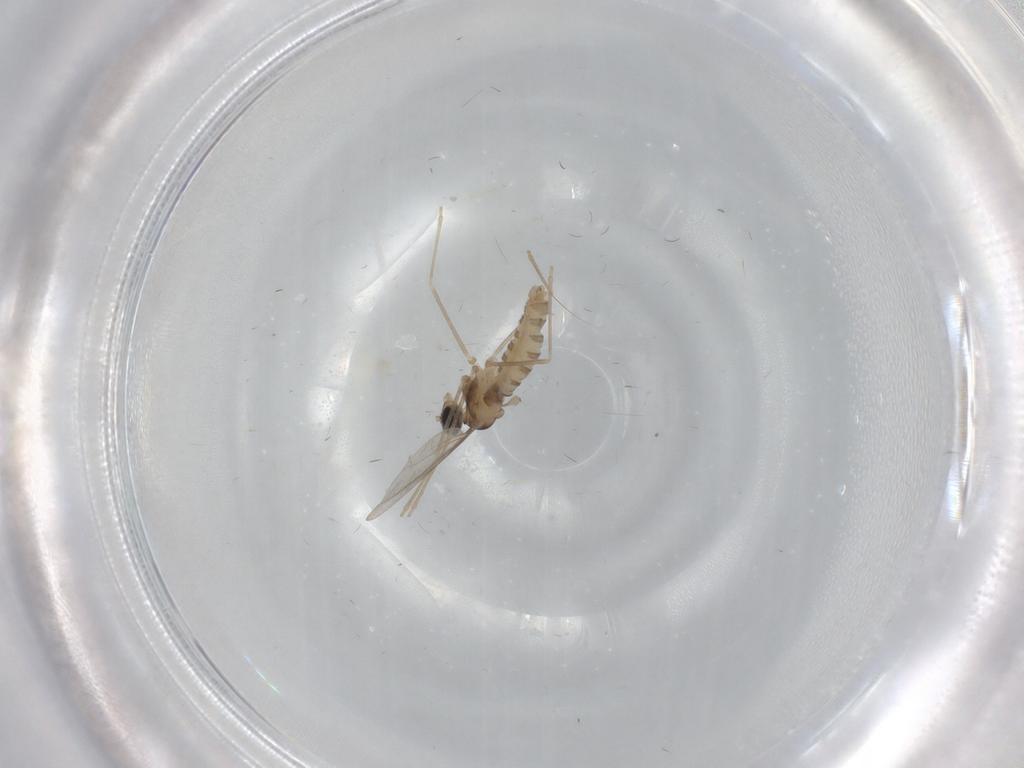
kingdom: Animalia
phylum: Arthropoda
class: Insecta
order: Diptera
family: Cecidomyiidae
